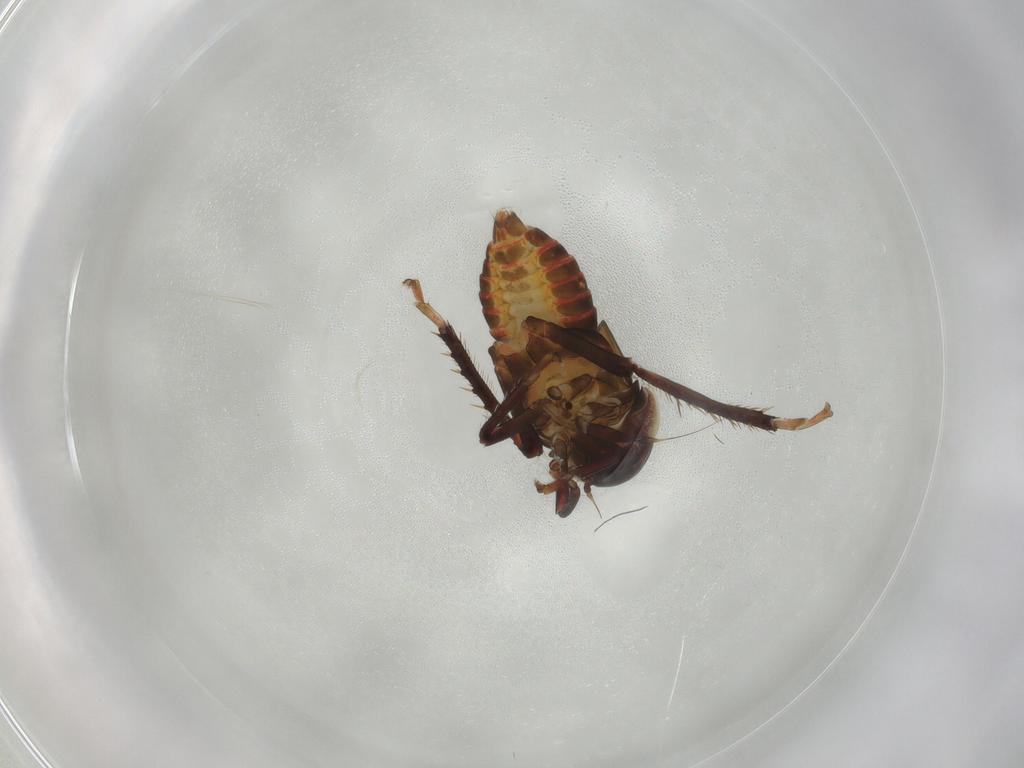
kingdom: Animalia
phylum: Arthropoda
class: Insecta
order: Hemiptera
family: Cicadellidae
